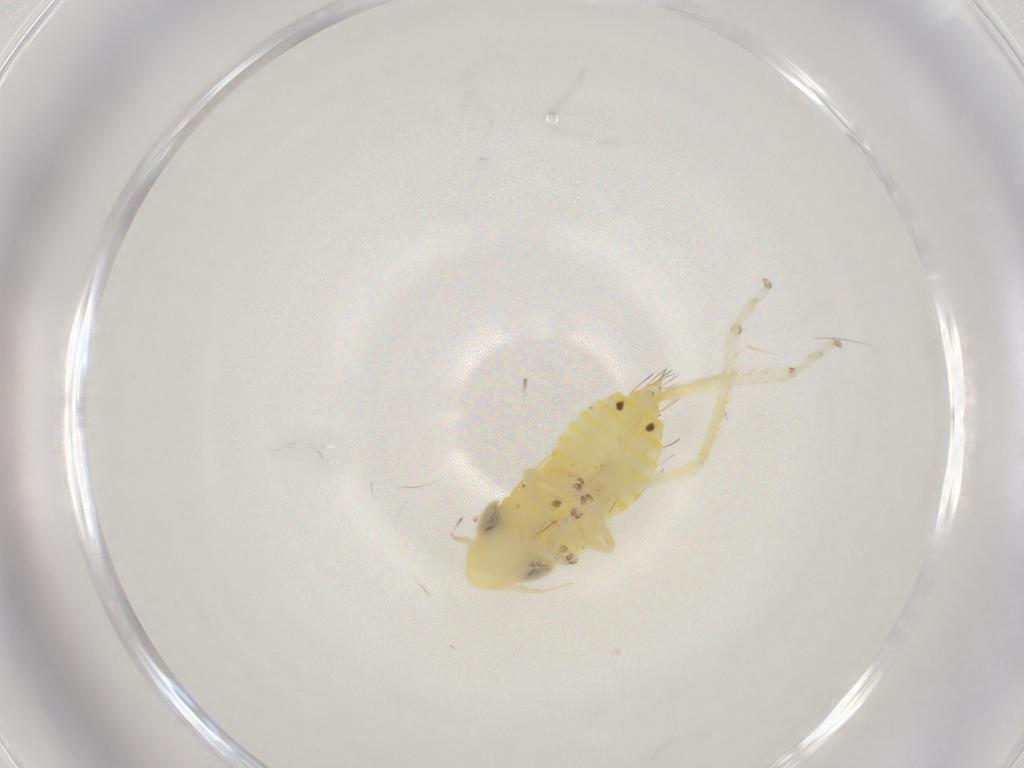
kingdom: Animalia
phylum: Arthropoda
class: Insecta
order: Hemiptera
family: Cicadellidae
